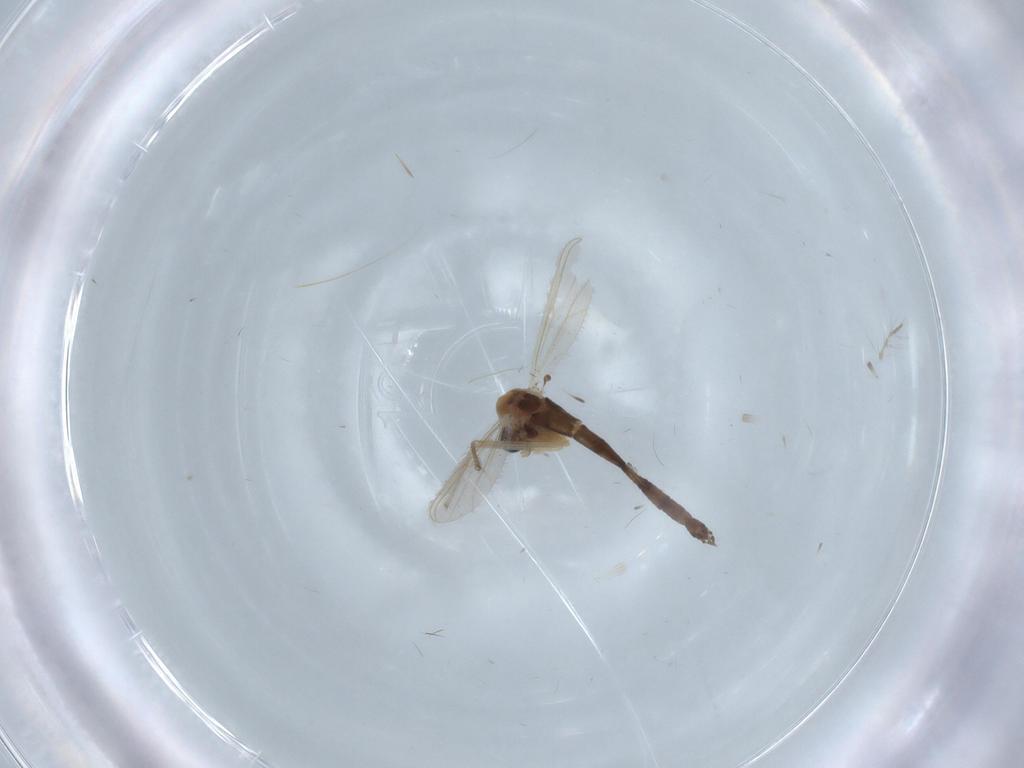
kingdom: Animalia
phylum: Arthropoda
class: Insecta
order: Diptera
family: Chironomidae
